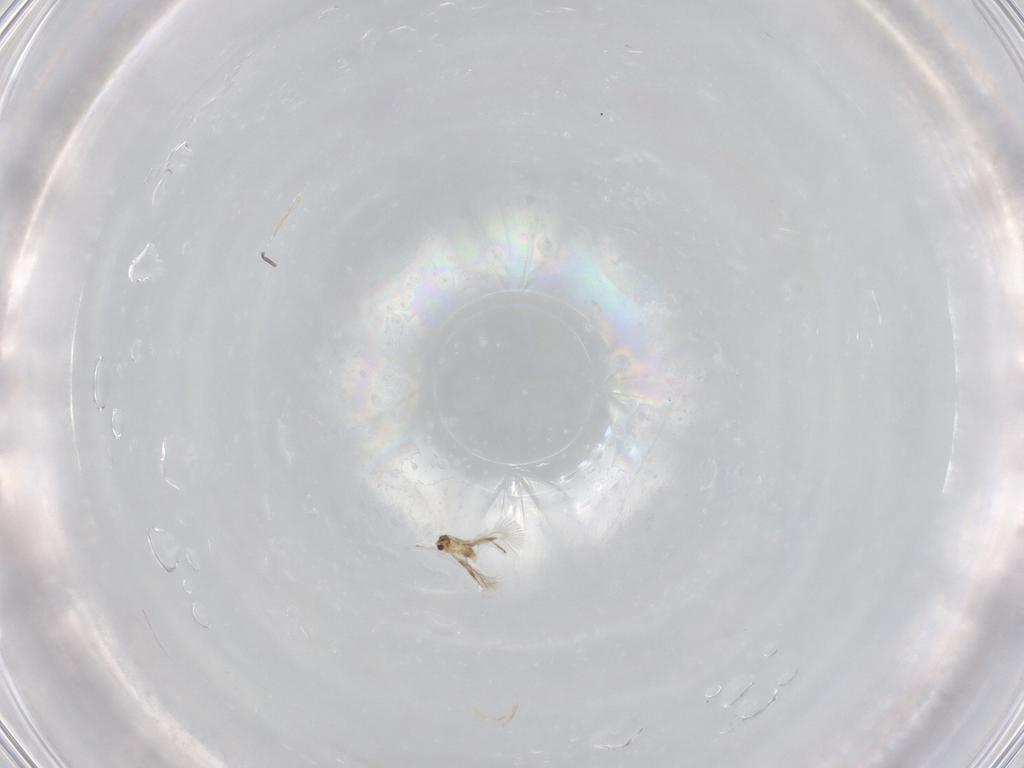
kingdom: Animalia
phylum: Arthropoda
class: Insecta
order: Hymenoptera
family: Mymaridae
